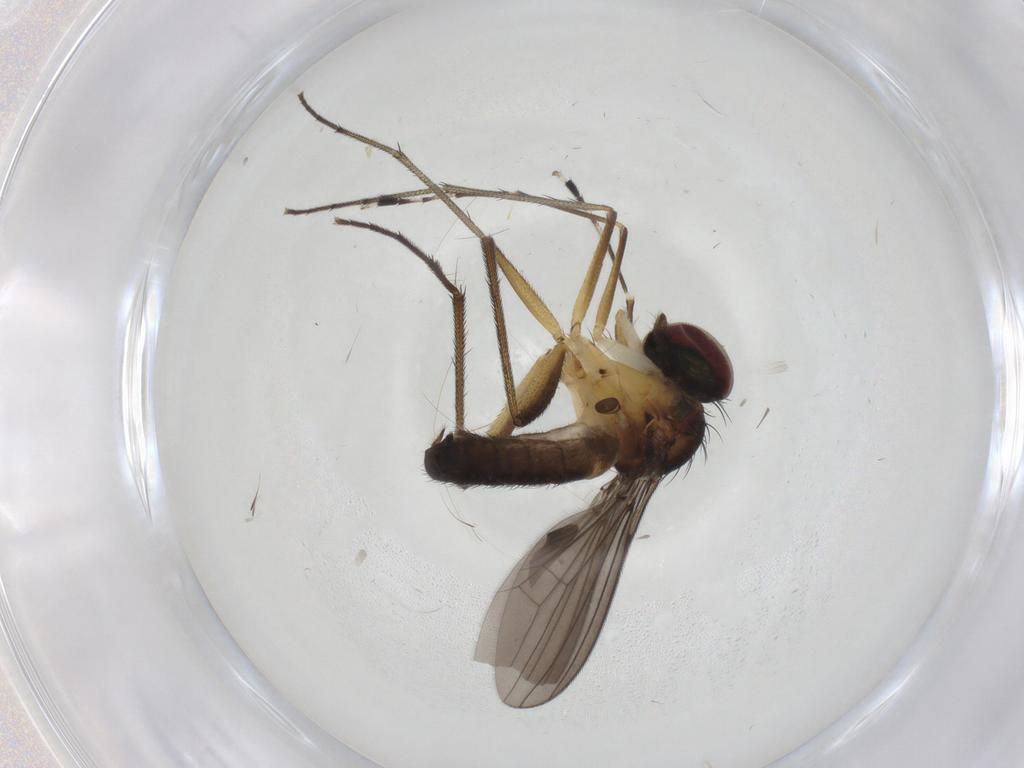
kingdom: Animalia
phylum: Arthropoda
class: Insecta
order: Diptera
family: Dolichopodidae
